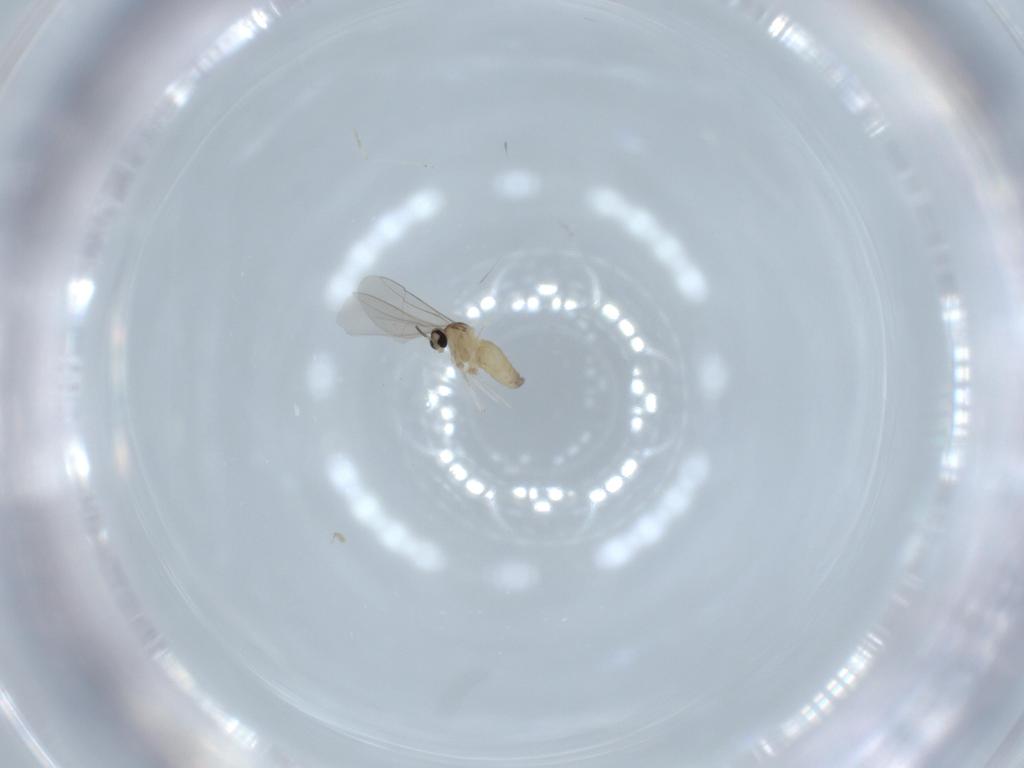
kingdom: Animalia
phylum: Arthropoda
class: Insecta
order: Diptera
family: Cecidomyiidae
